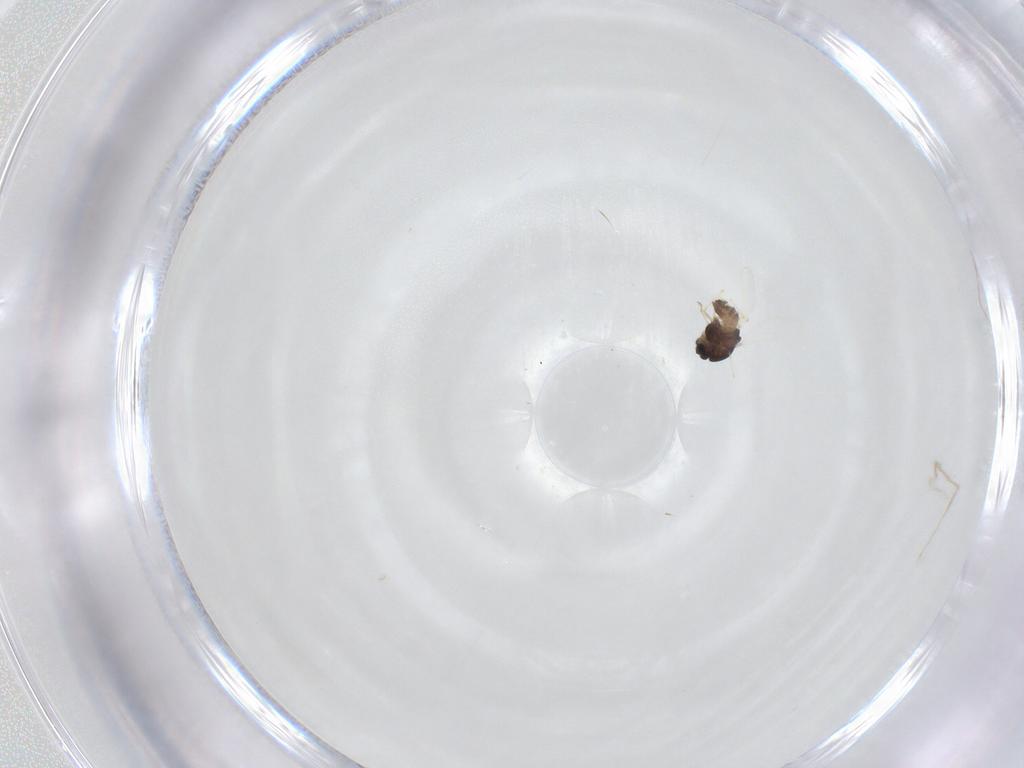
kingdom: Animalia
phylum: Arthropoda
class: Insecta
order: Diptera
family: Chironomidae
